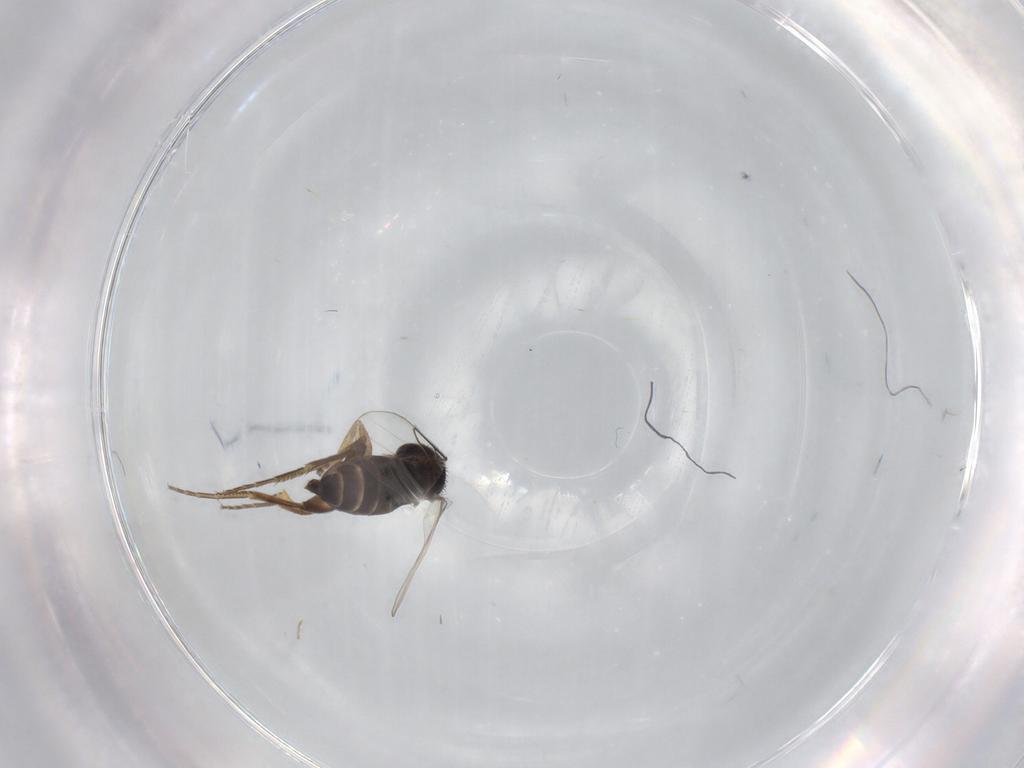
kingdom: Animalia
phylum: Arthropoda
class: Insecta
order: Diptera
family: Phoridae
